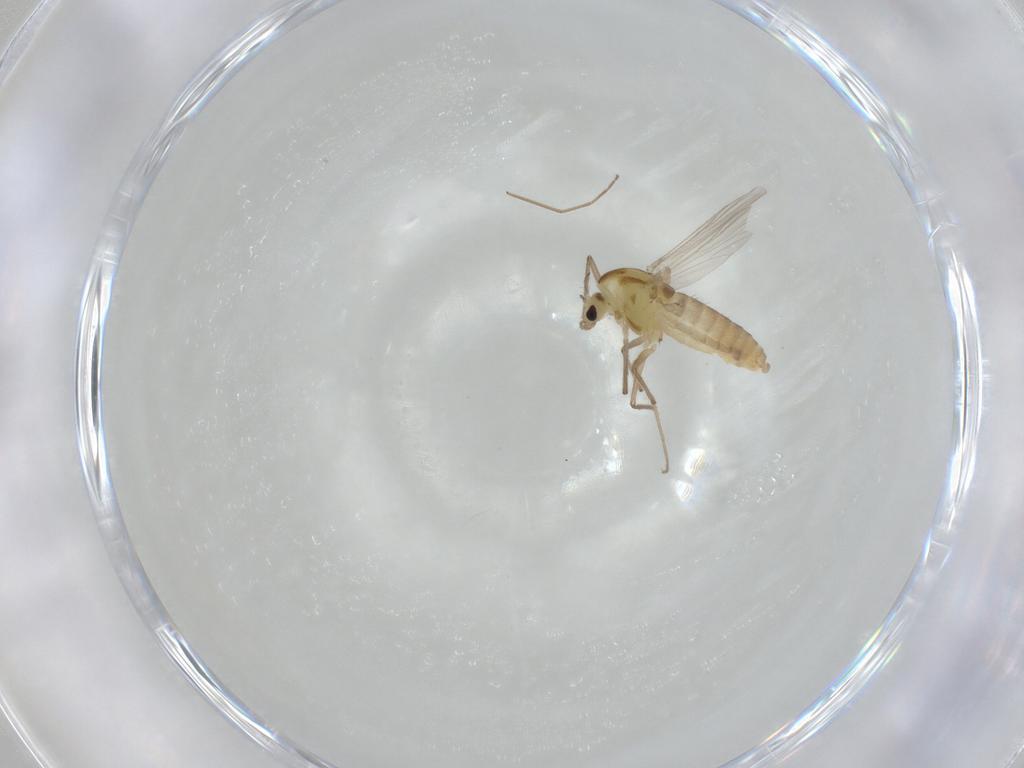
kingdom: Animalia
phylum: Arthropoda
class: Insecta
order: Diptera
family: Chironomidae
